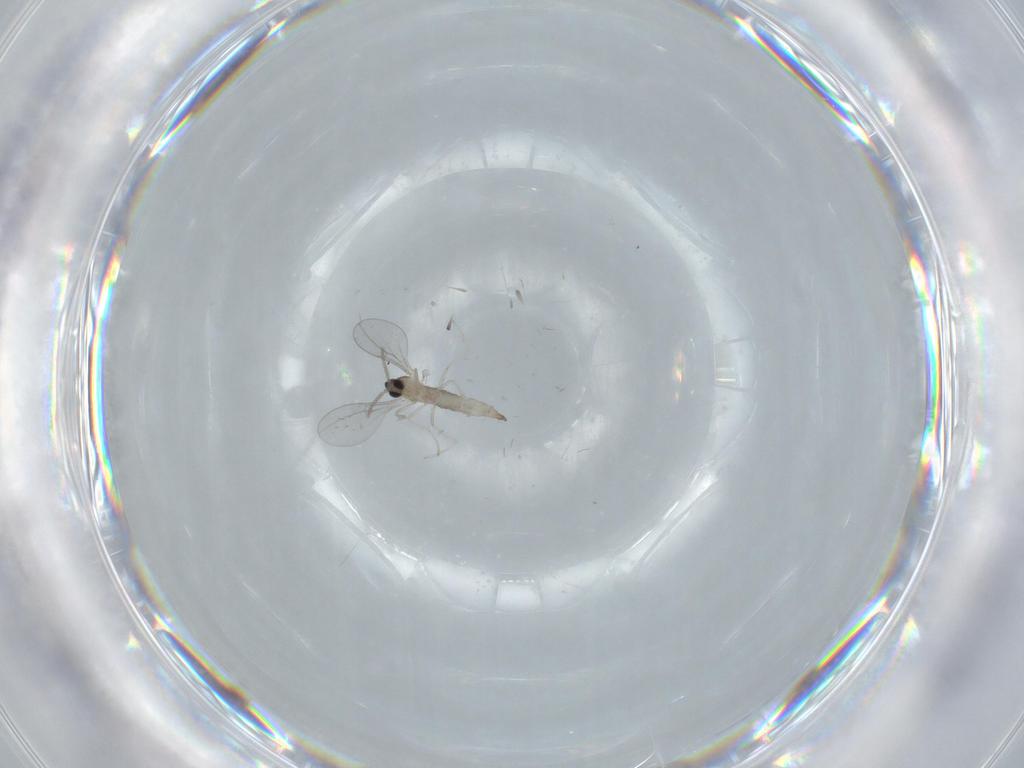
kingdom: Animalia
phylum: Arthropoda
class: Insecta
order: Diptera
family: Cecidomyiidae
